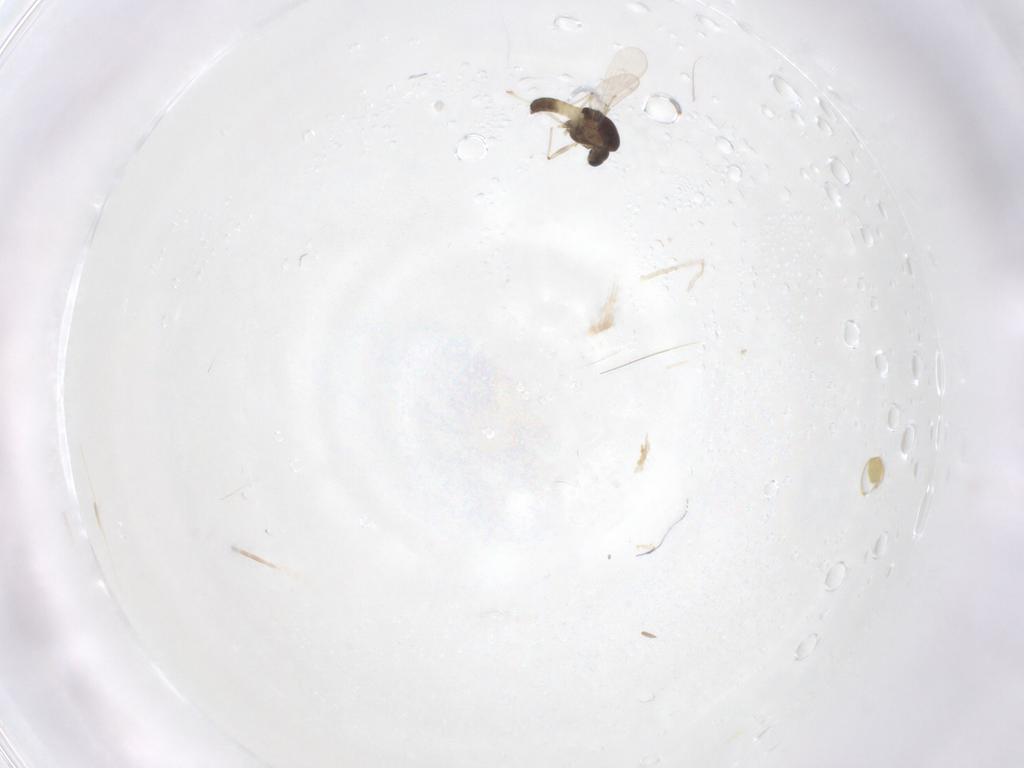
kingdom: Animalia
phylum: Arthropoda
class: Insecta
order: Diptera
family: Chironomidae
